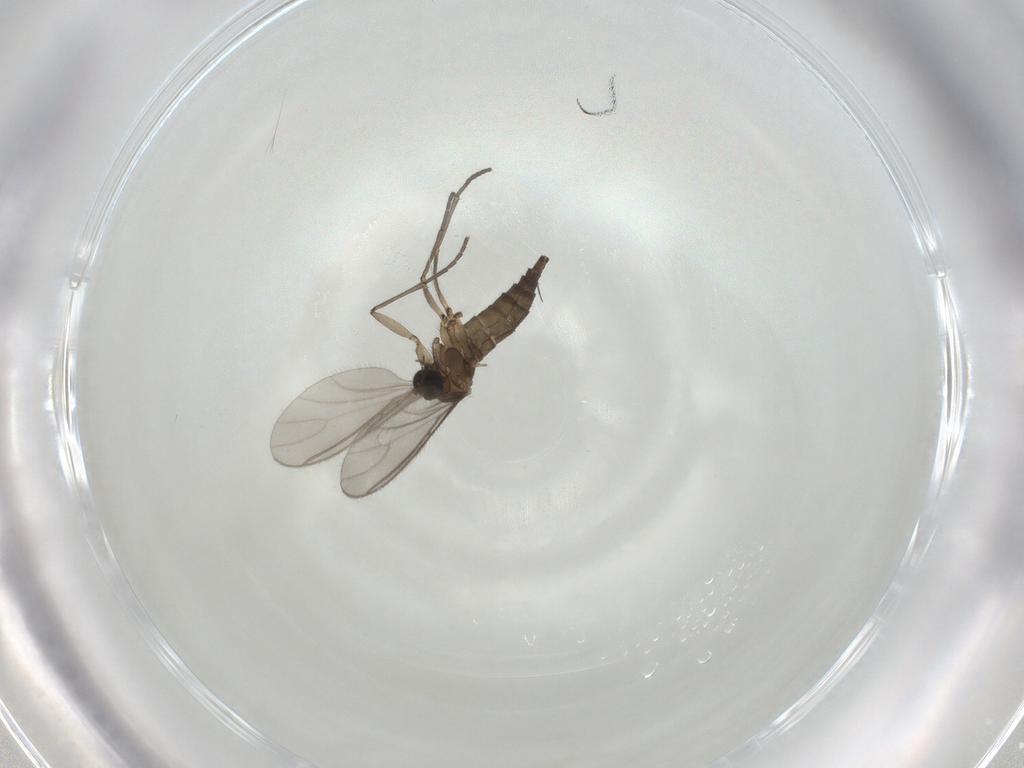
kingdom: Animalia
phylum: Arthropoda
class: Insecta
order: Diptera
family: Sciaridae
